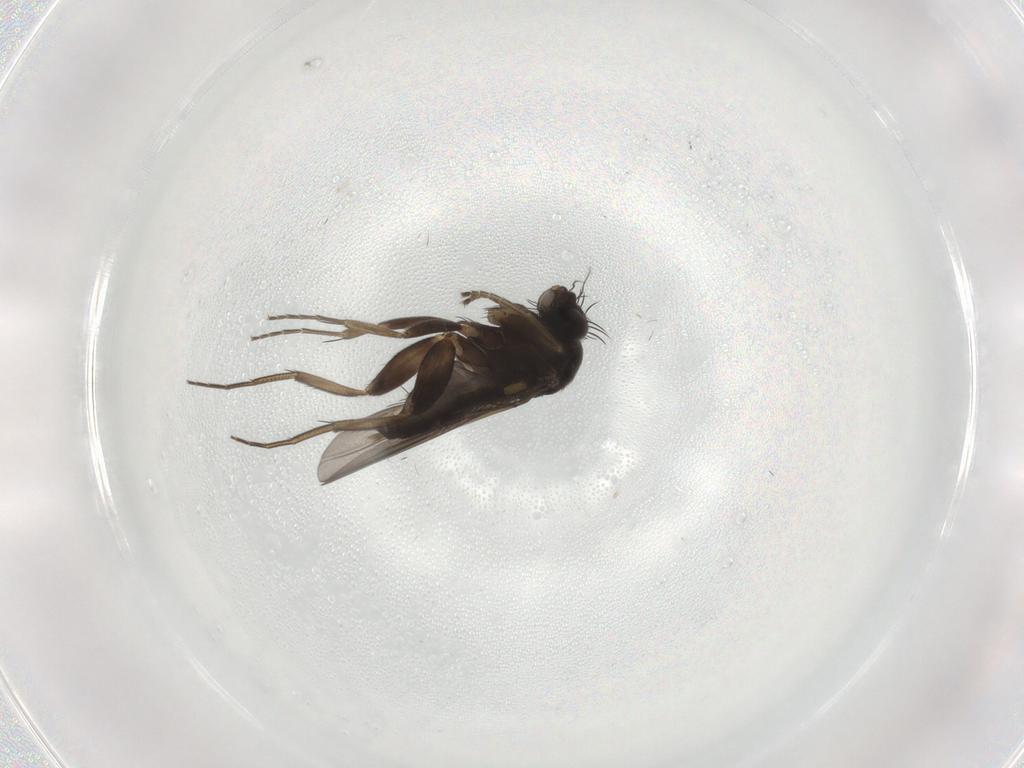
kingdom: Animalia
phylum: Arthropoda
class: Insecta
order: Diptera
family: Phoridae
